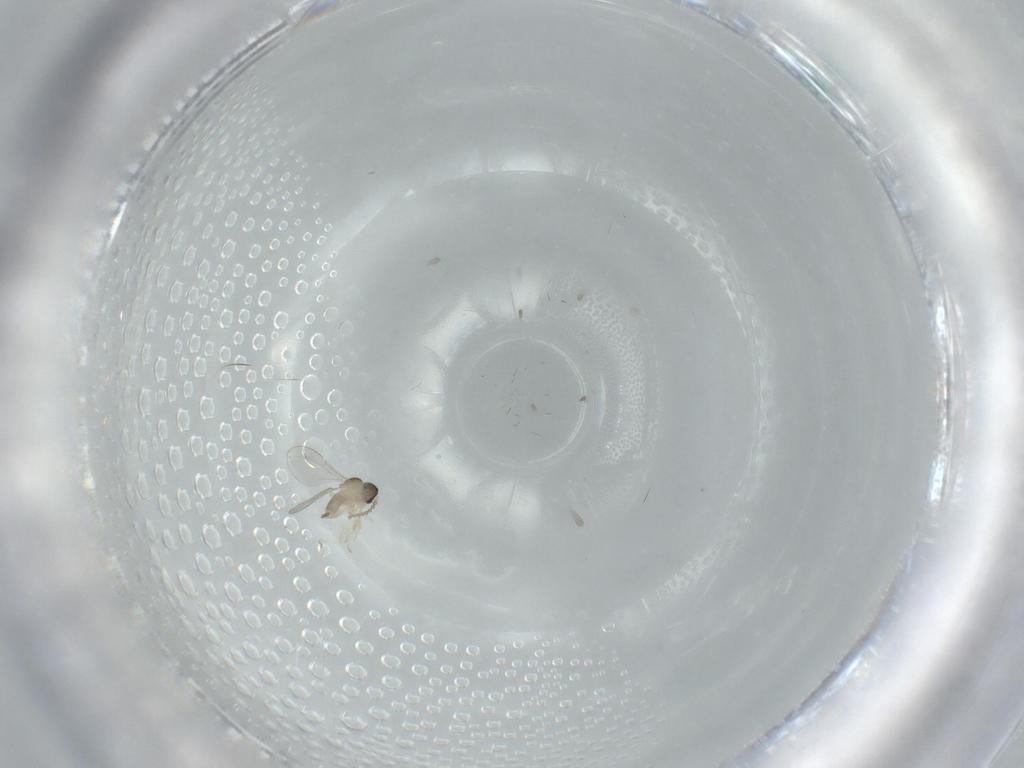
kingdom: Animalia
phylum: Arthropoda
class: Insecta
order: Diptera
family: Cecidomyiidae
